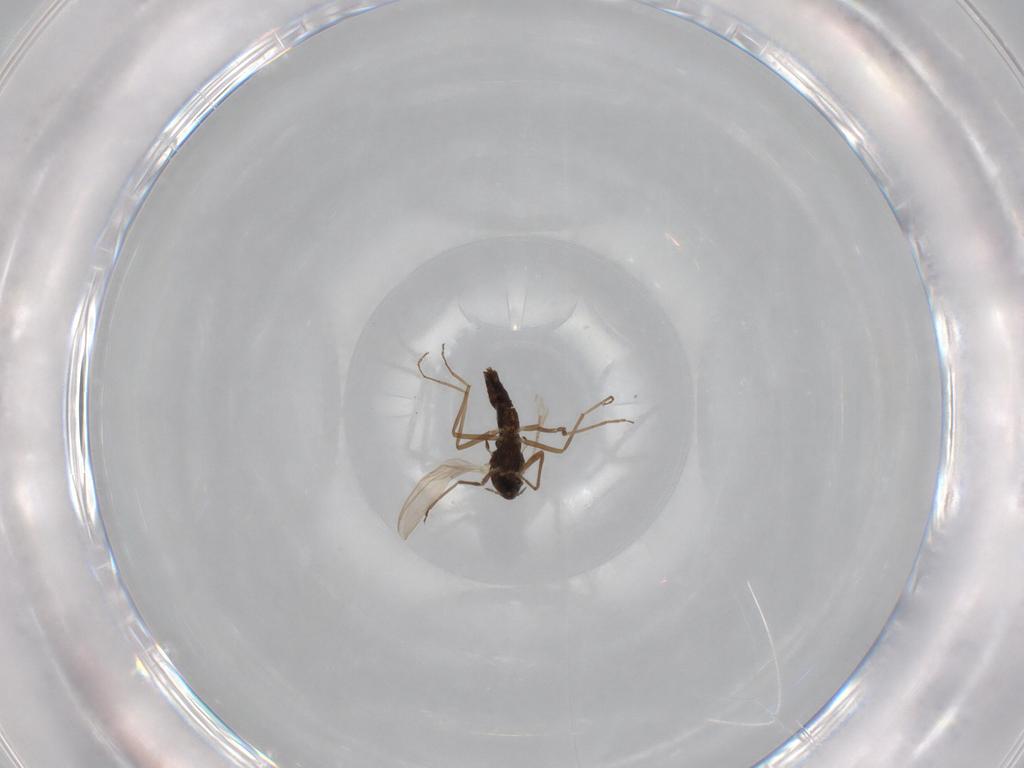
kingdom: Animalia
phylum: Arthropoda
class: Insecta
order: Diptera
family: Chironomidae
